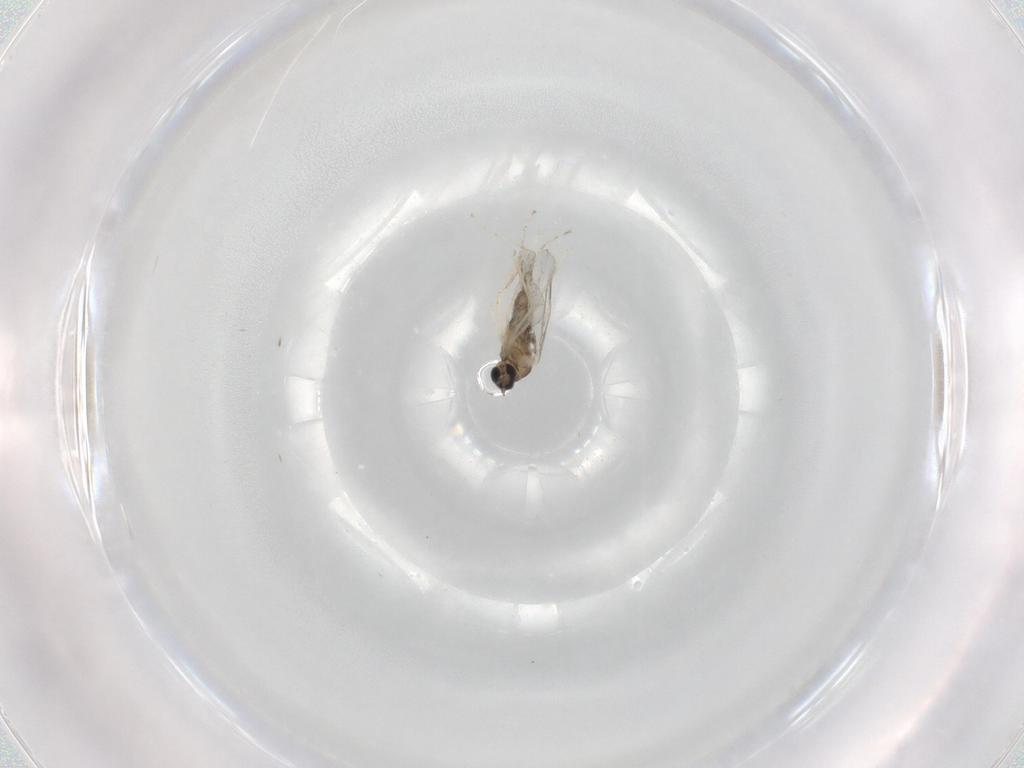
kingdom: Animalia
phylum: Arthropoda
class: Insecta
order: Diptera
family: Cecidomyiidae
